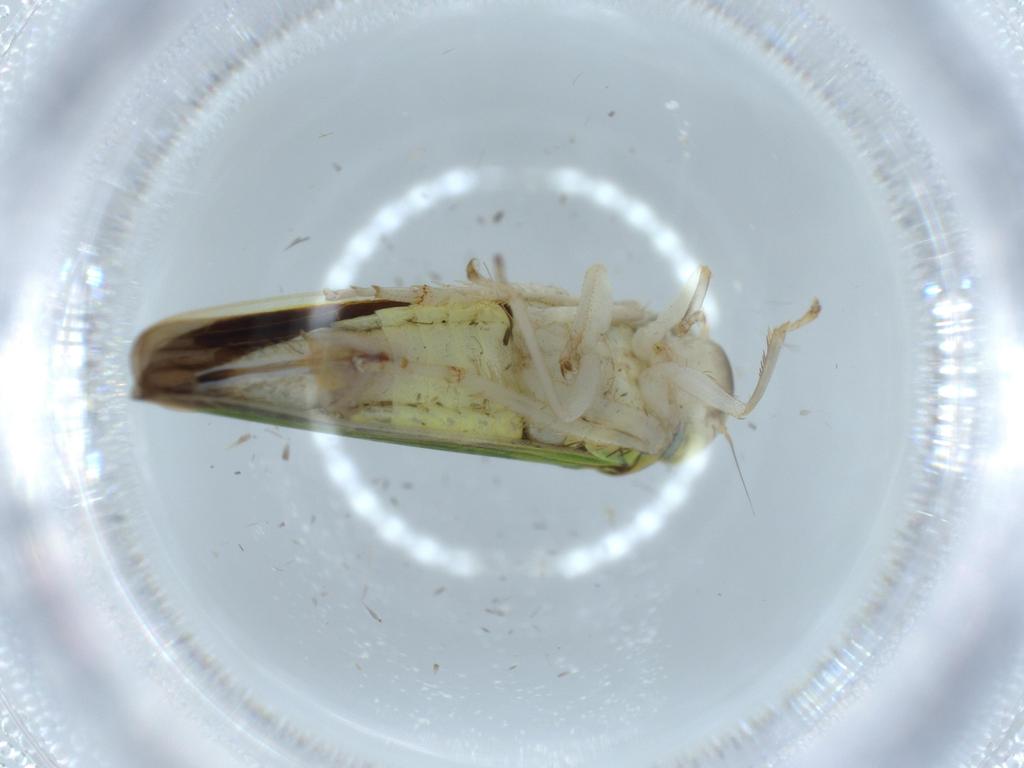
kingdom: Animalia
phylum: Arthropoda
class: Insecta
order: Hemiptera
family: Cicadellidae
